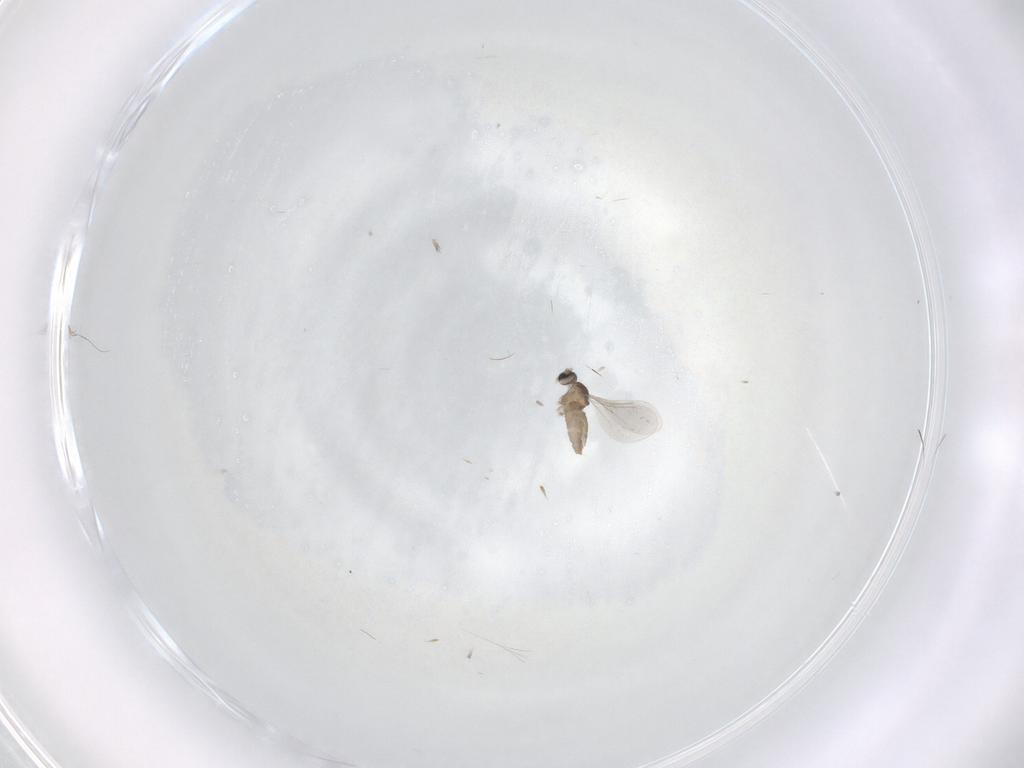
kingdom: Animalia
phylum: Arthropoda
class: Insecta
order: Diptera
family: Cecidomyiidae
